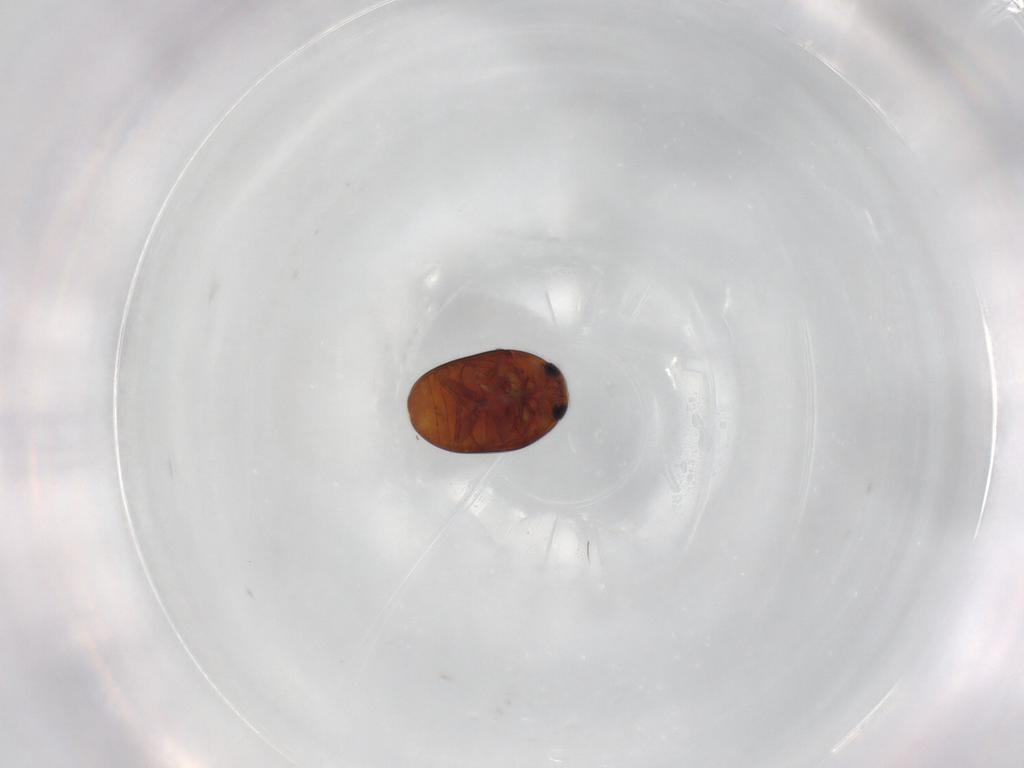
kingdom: Animalia
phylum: Arthropoda
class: Insecta
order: Coleoptera
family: Phalacridae
